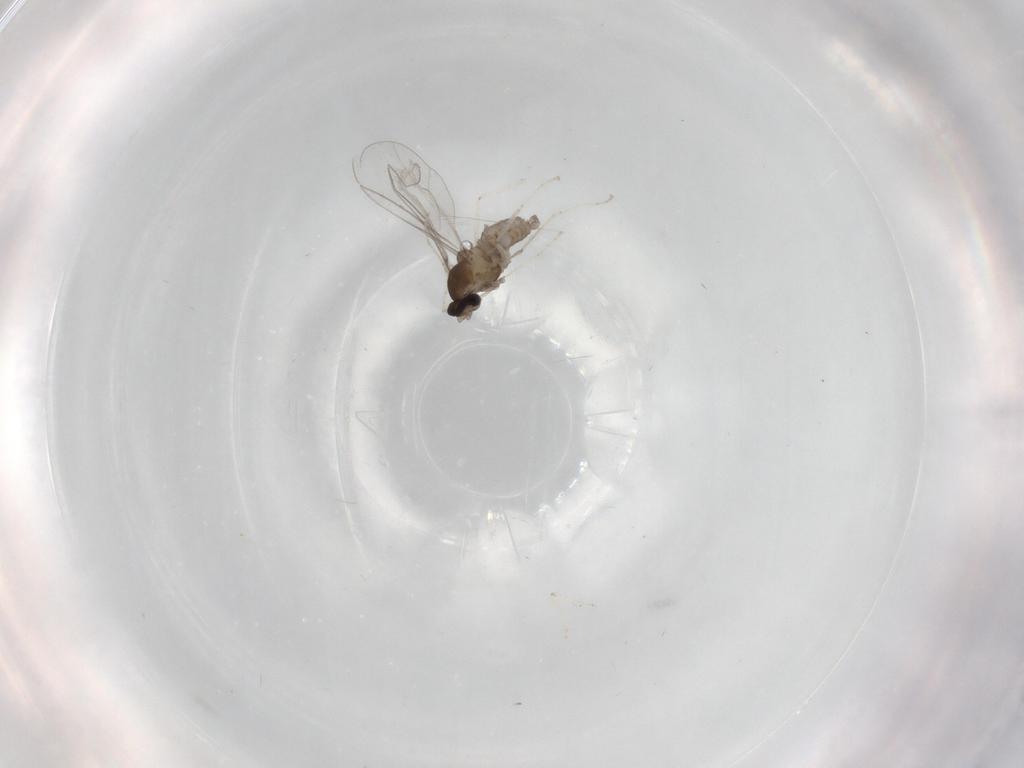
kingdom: Animalia
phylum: Arthropoda
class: Insecta
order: Diptera
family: Cecidomyiidae
